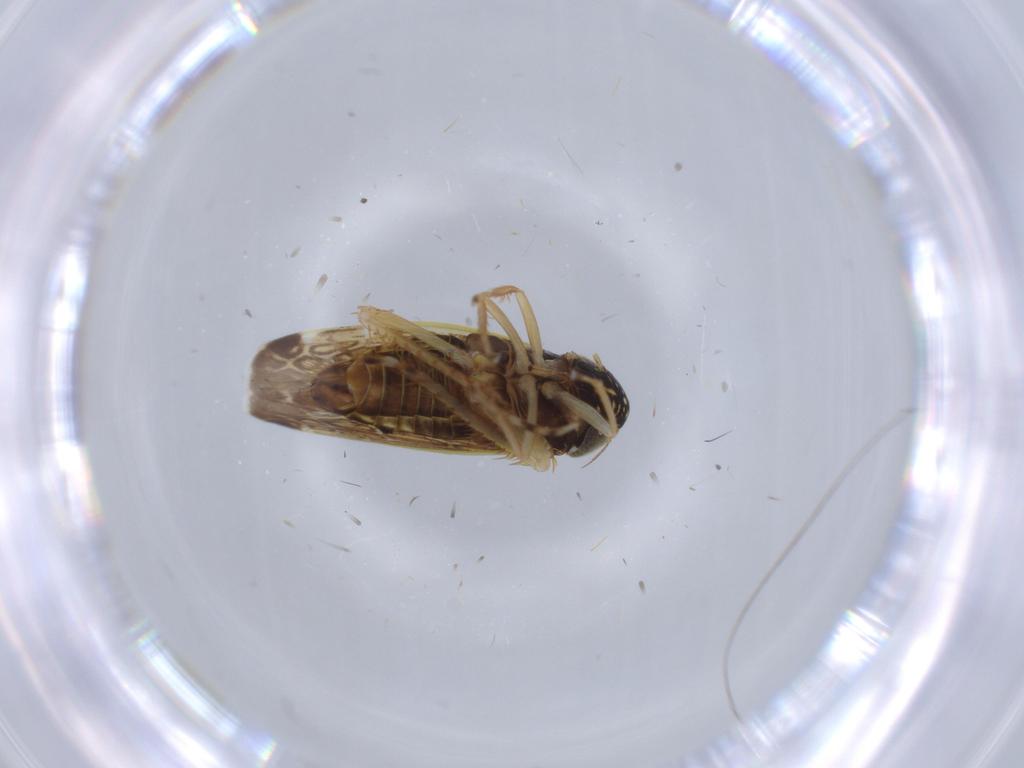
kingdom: Animalia
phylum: Arthropoda
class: Insecta
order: Hemiptera
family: Cicadellidae
